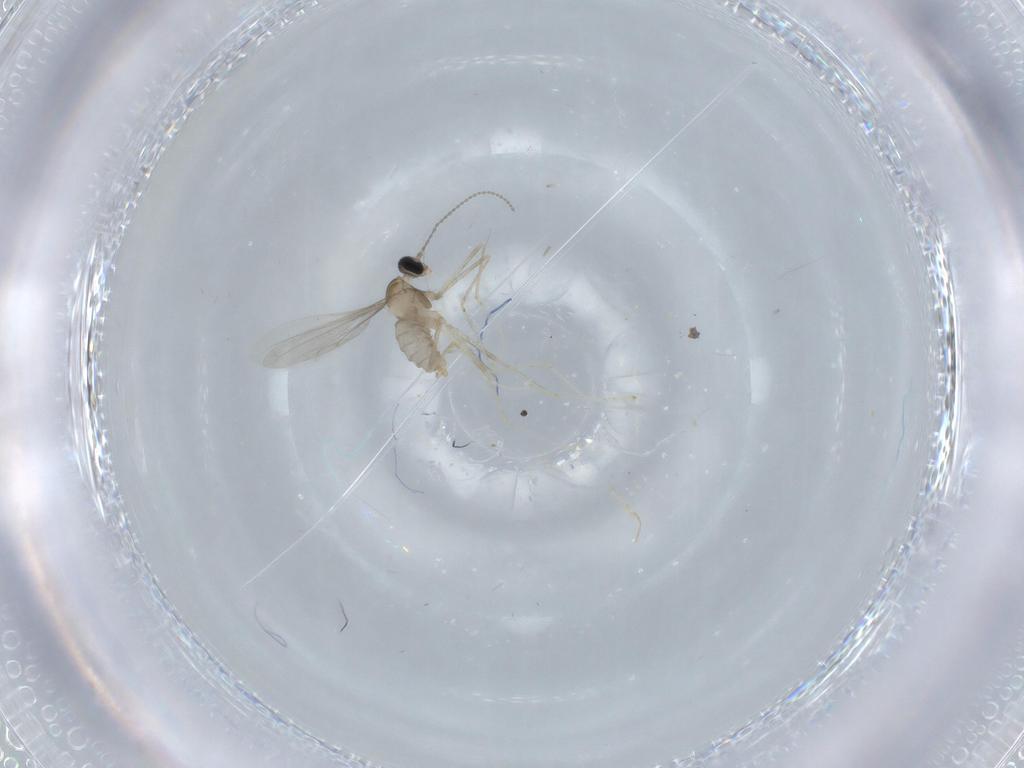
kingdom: Animalia
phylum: Arthropoda
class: Insecta
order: Diptera
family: Cecidomyiidae
